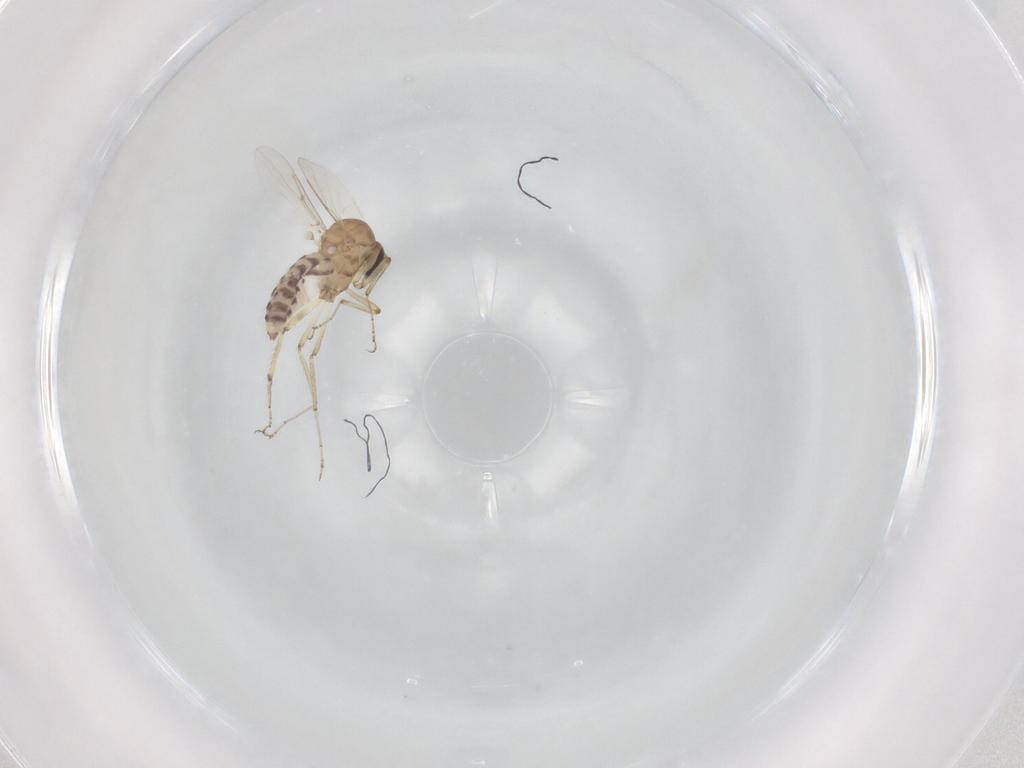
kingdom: Animalia
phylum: Arthropoda
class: Insecta
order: Diptera
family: Ceratopogonidae
